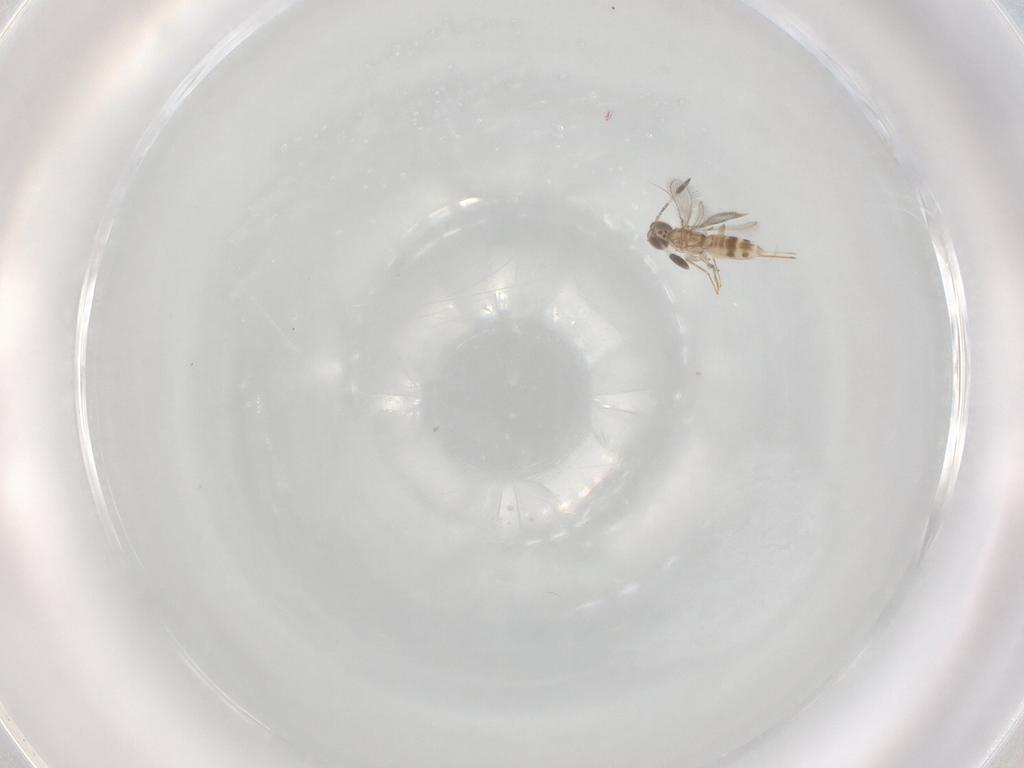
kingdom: Animalia
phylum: Arthropoda
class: Insecta
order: Hymenoptera
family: Mymaridae
